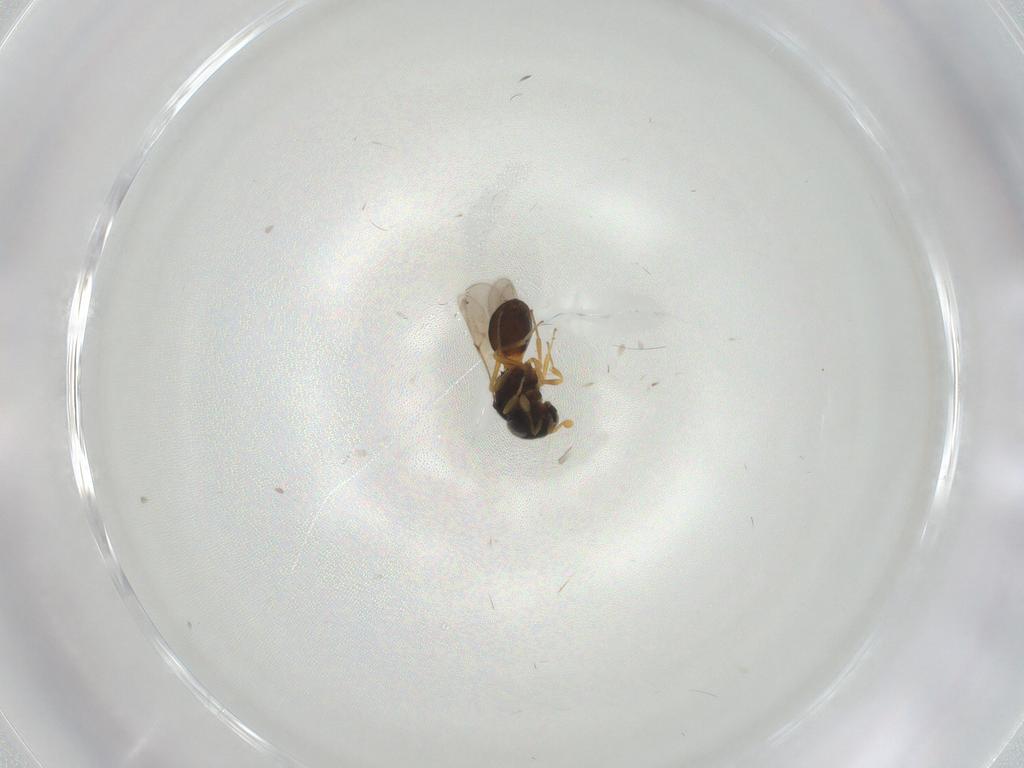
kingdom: Animalia
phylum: Arthropoda
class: Insecta
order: Hymenoptera
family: Scelionidae
